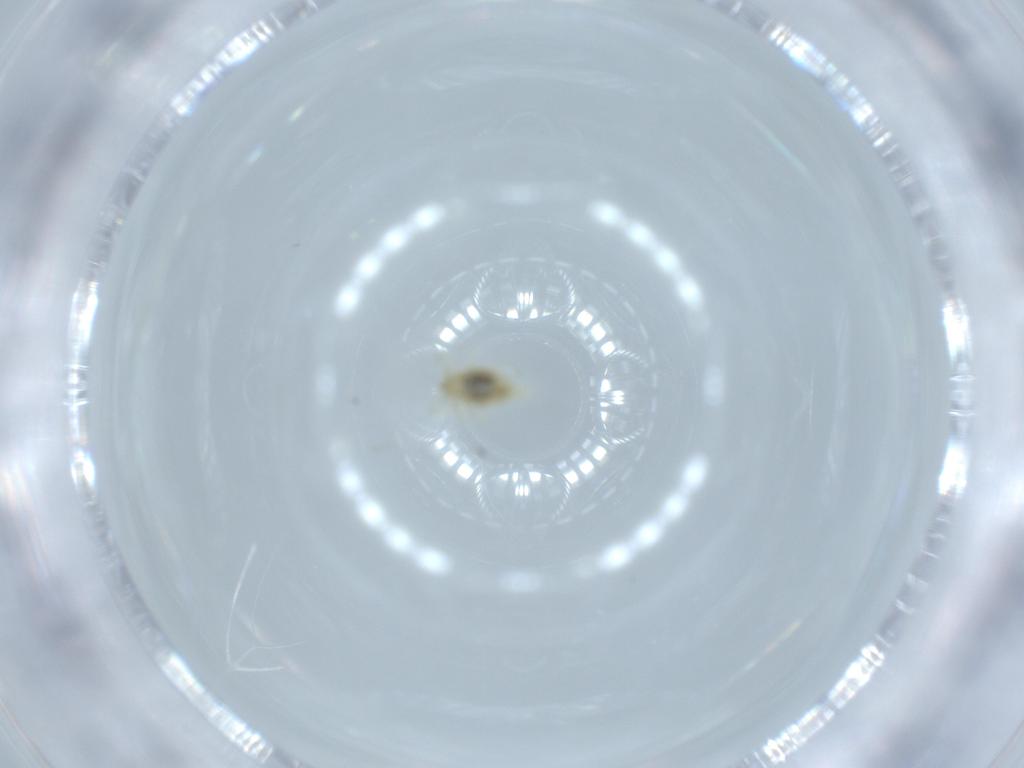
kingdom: Animalia
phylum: Arthropoda
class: Insecta
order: Neuroptera
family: Coniopterygidae
